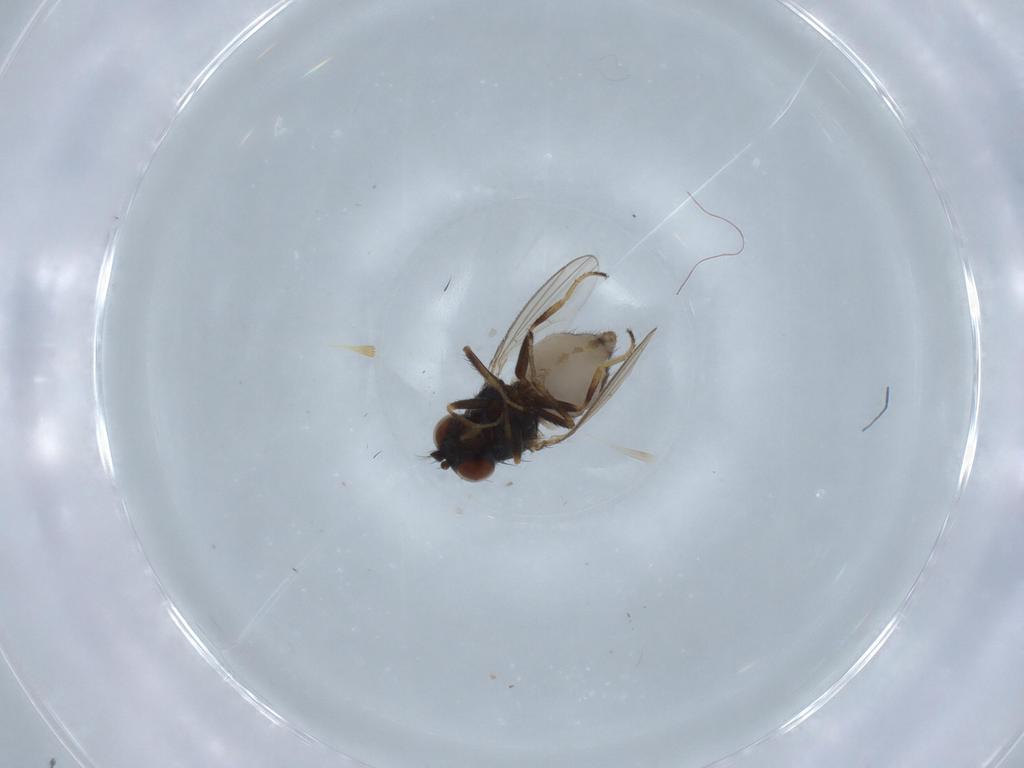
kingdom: Animalia
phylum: Arthropoda
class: Insecta
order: Diptera
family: Ephydridae
